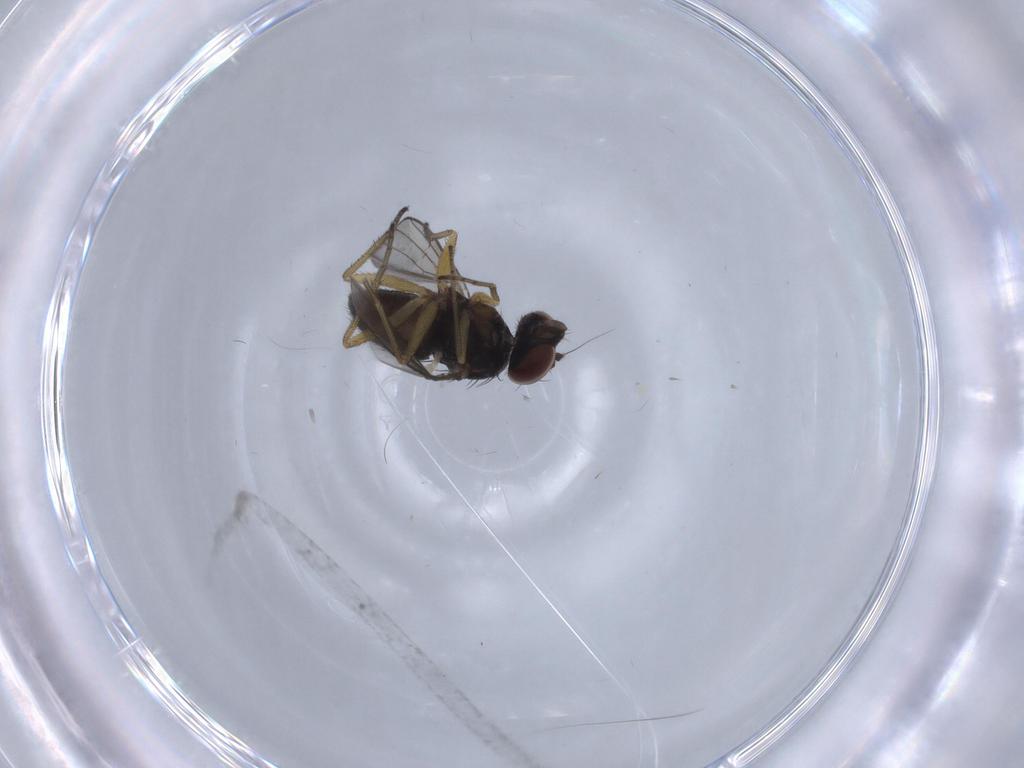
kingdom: Animalia
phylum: Arthropoda
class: Insecta
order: Diptera
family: Dolichopodidae
